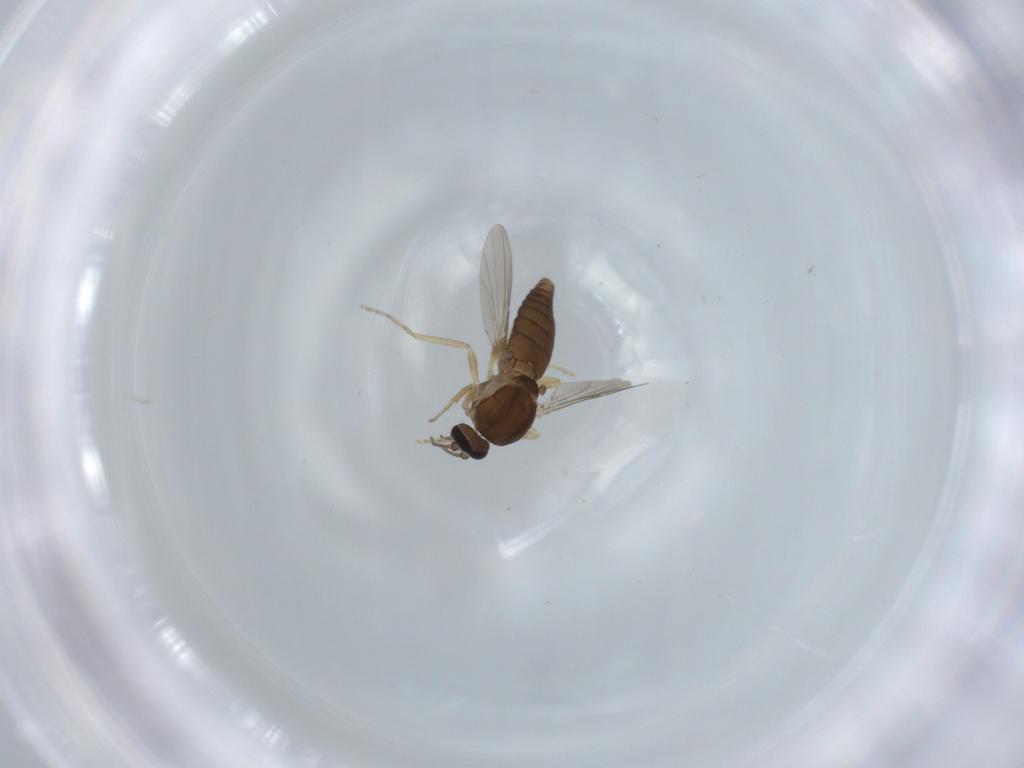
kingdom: Animalia
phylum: Arthropoda
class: Insecta
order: Diptera
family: Ceratopogonidae
